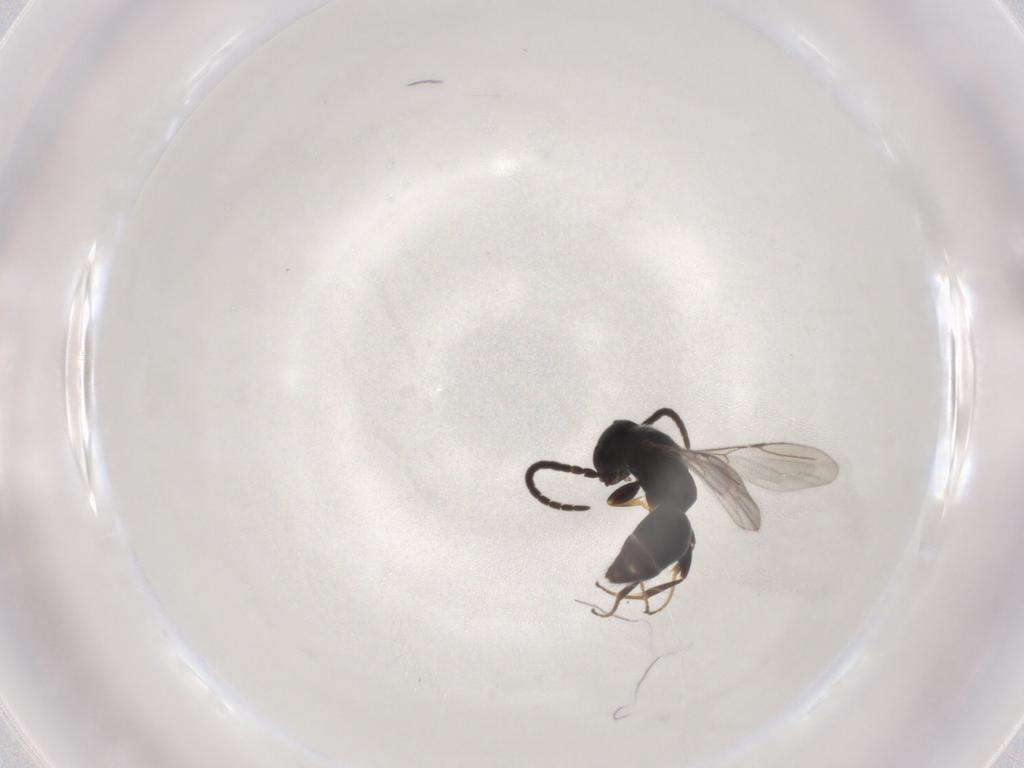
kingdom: Animalia
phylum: Arthropoda
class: Insecta
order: Hymenoptera
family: Bethylidae
